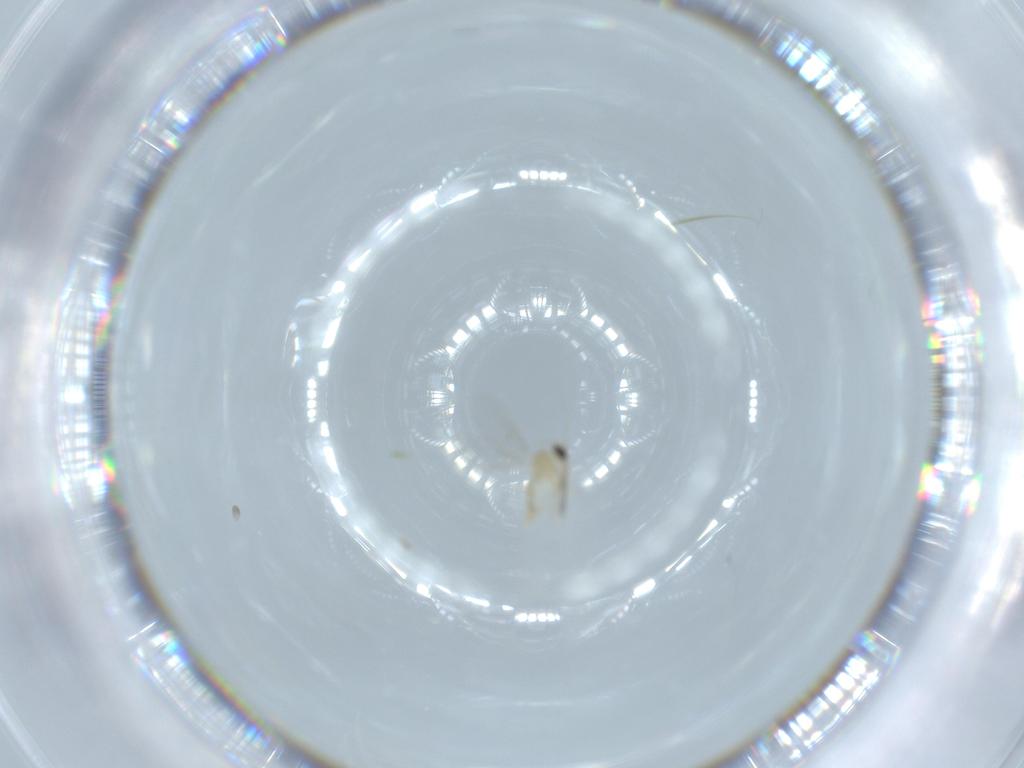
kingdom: Animalia
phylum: Arthropoda
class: Insecta
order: Diptera
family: Cecidomyiidae
